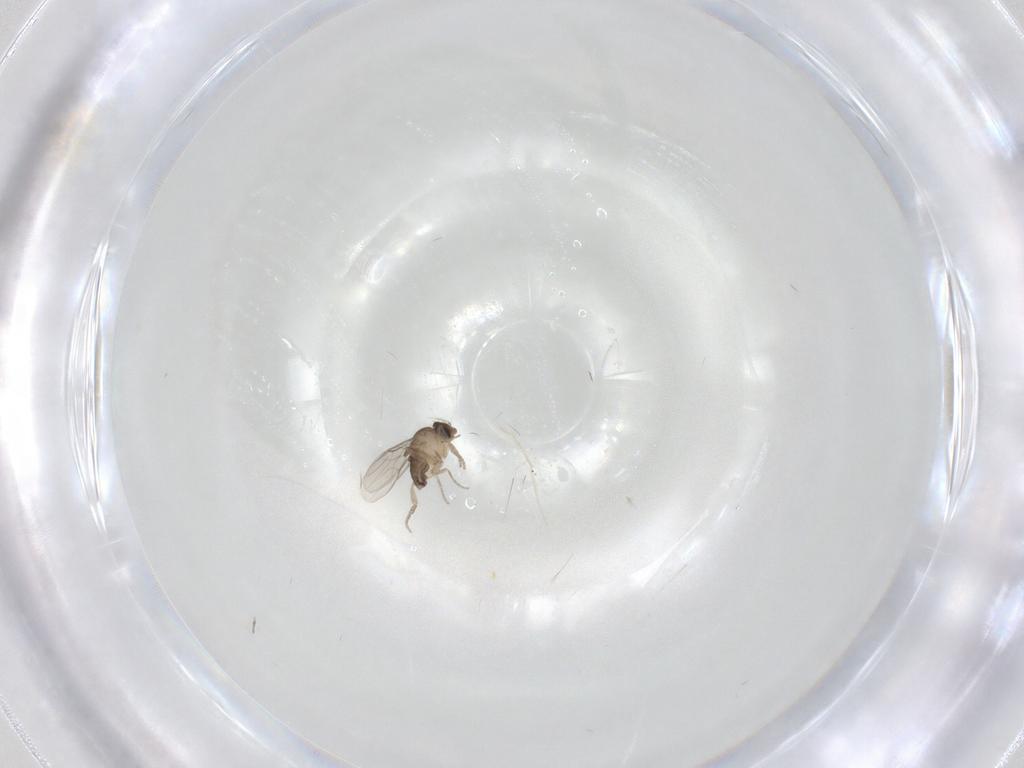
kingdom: Animalia
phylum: Arthropoda
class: Insecta
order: Diptera
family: Phoridae
